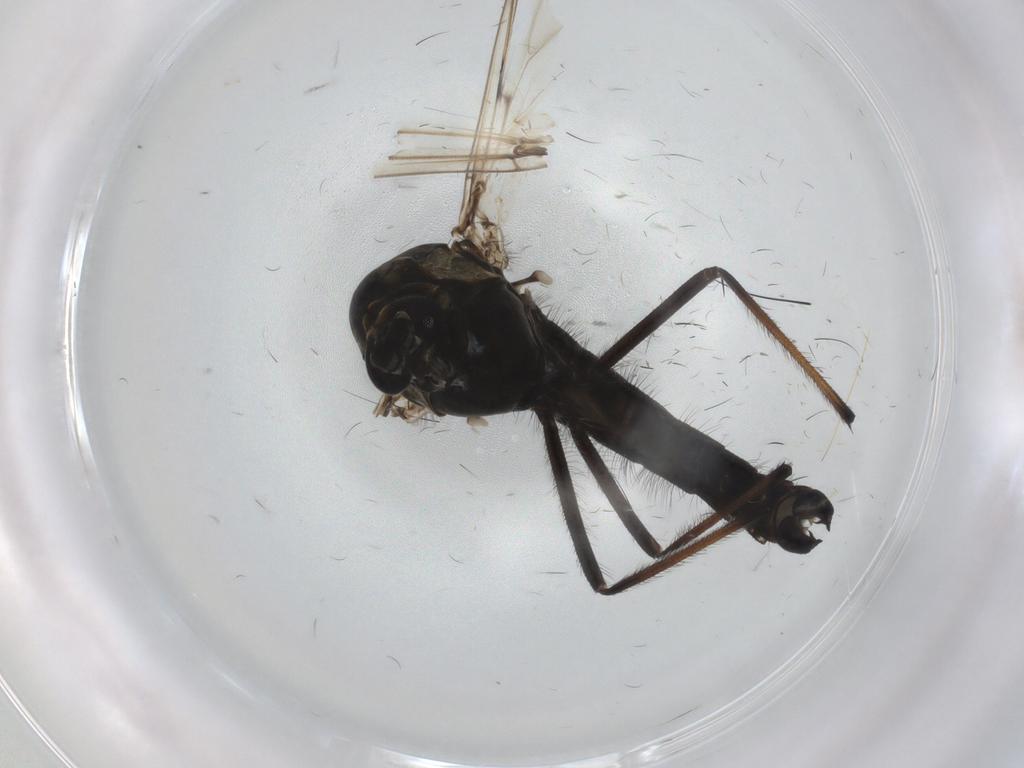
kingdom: Animalia
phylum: Arthropoda
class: Insecta
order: Diptera
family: Chironomidae
